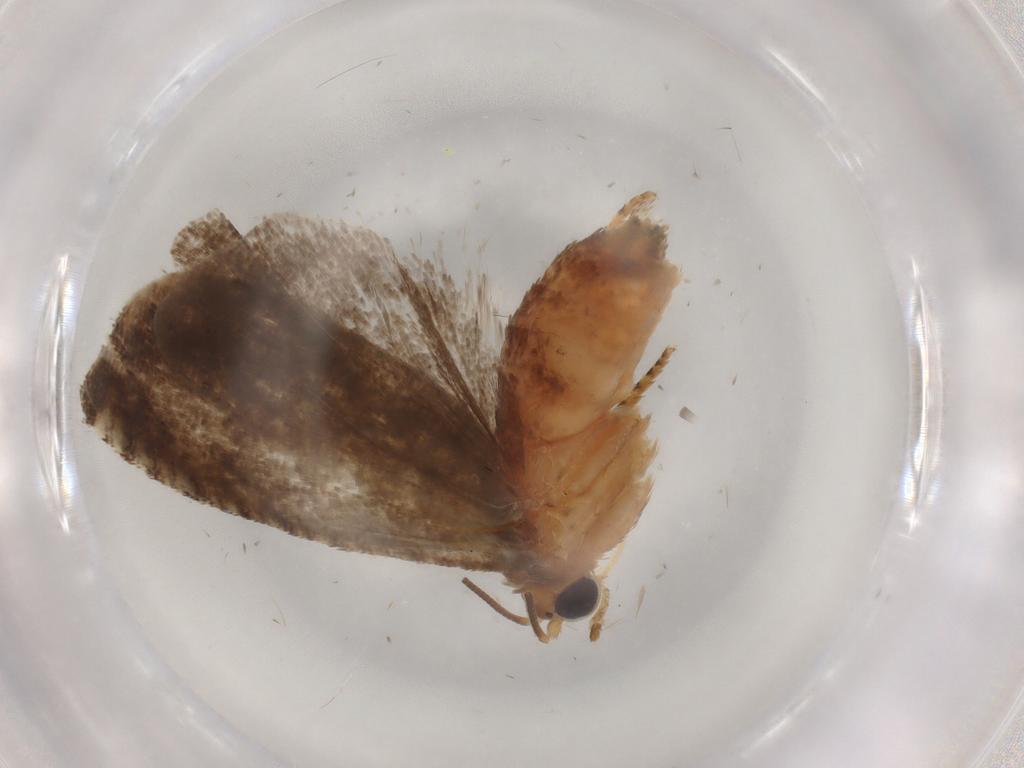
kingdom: Animalia
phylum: Arthropoda
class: Insecta
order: Lepidoptera
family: Tortricidae
